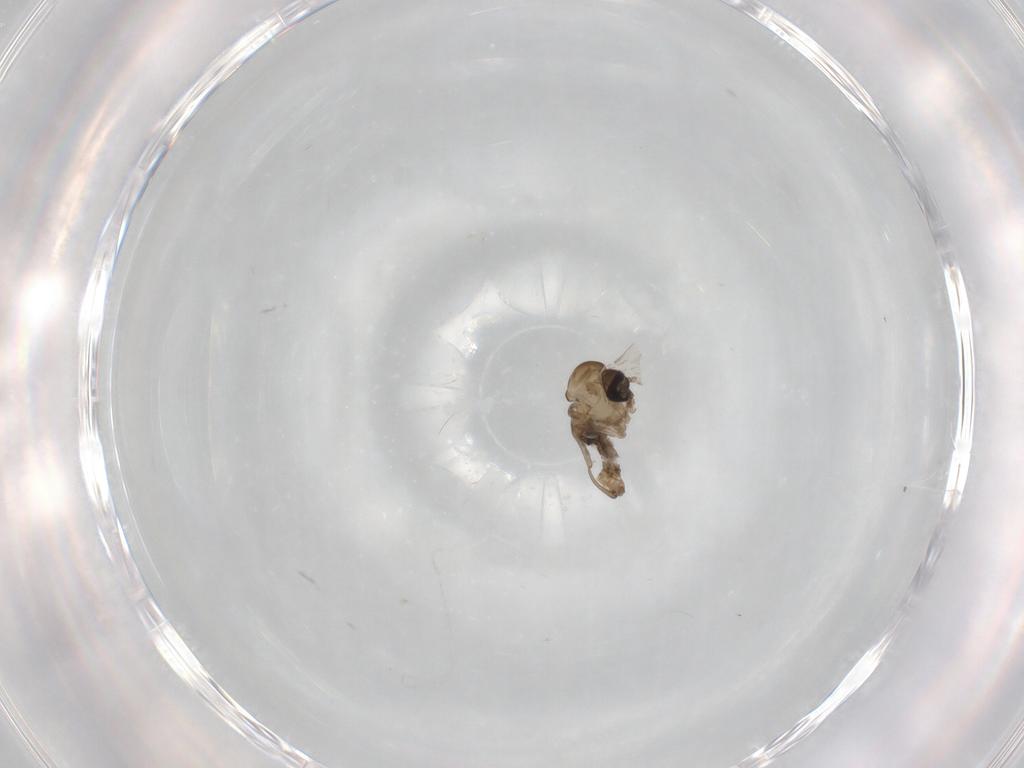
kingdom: Animalia
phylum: Arthropoda
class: Insecta
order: Diptera
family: Drosophilidae
